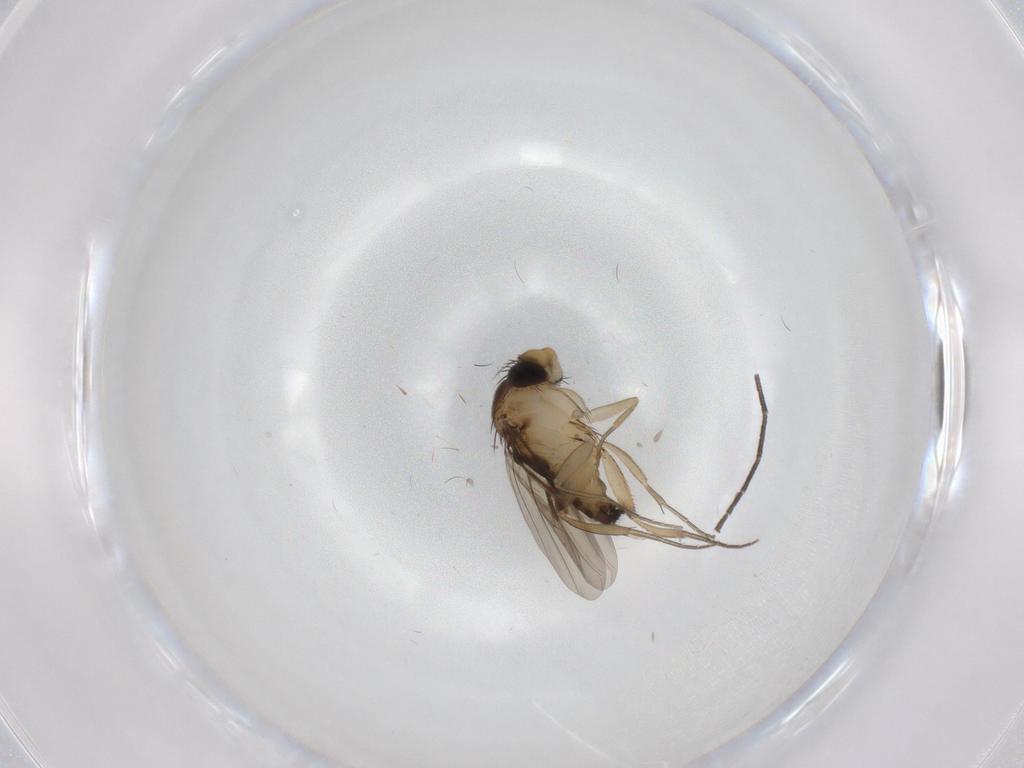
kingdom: Animalia
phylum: Arthropoda
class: Insecta
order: Diptera
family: Phoridae
